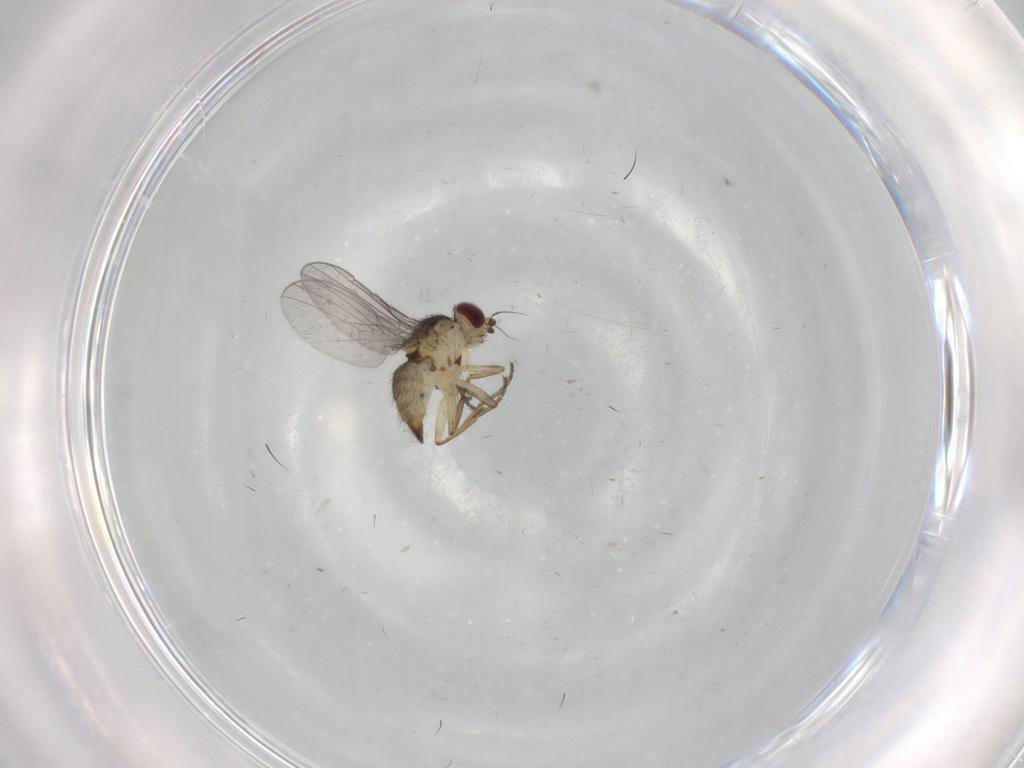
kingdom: Animalia
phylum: Arthropoda
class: Insecta
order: Diptera
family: Agromyzidae
